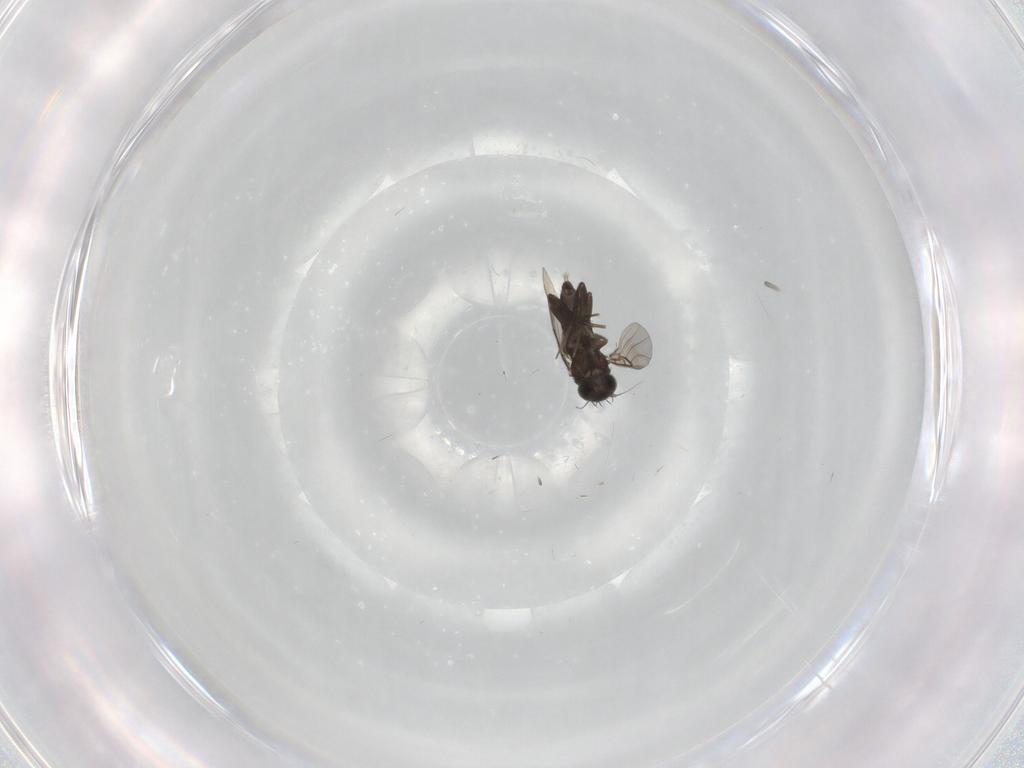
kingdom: Animalia
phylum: Arthropoda
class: Insecta
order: Diptera
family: Phoridae
